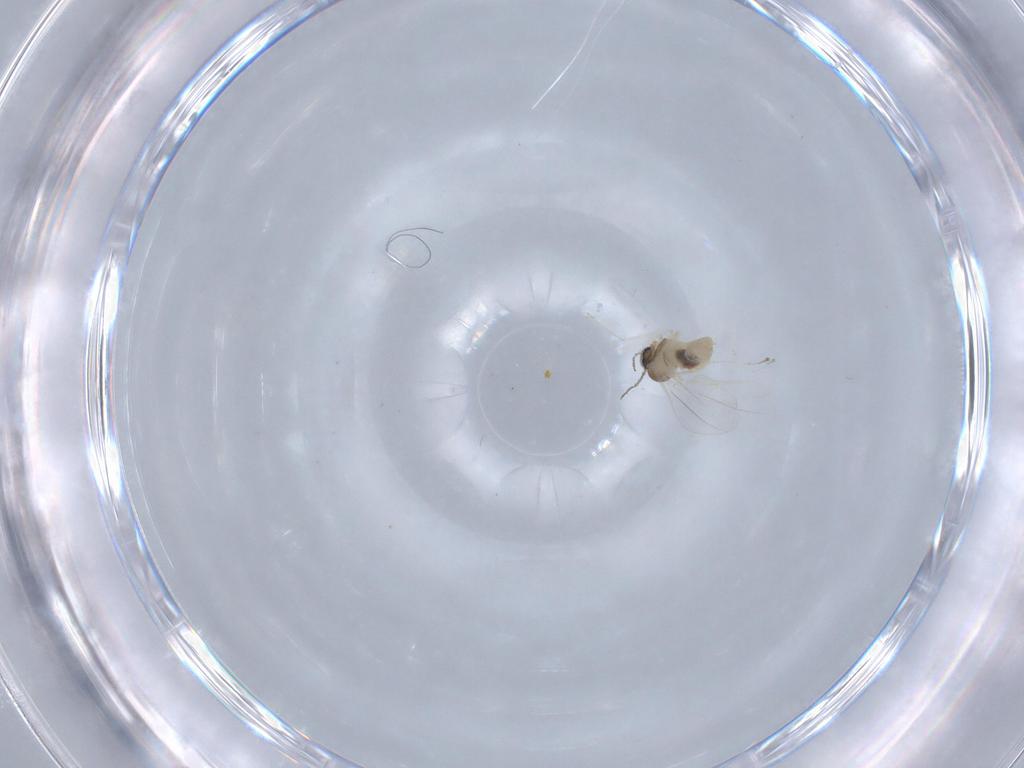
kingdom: Animalia
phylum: Arthropoda
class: Insecta
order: Diptera
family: Cecidomyiidae
